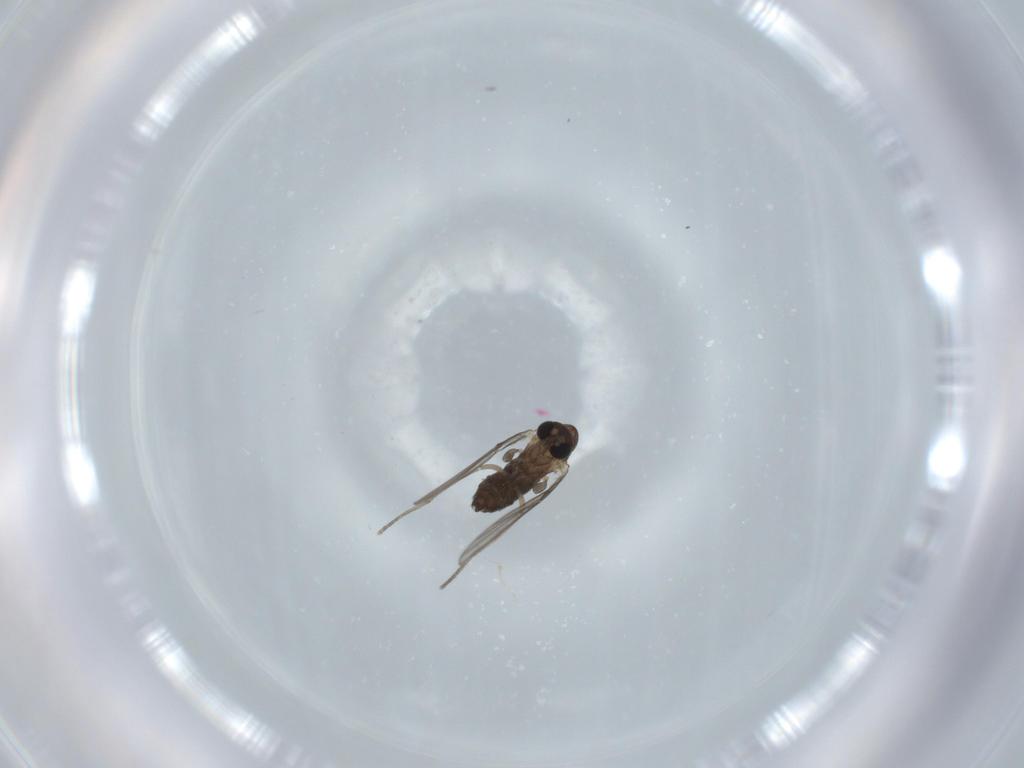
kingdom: Animalia
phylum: Arthropoda
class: Insecta
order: Diptera
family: Psychodidae
